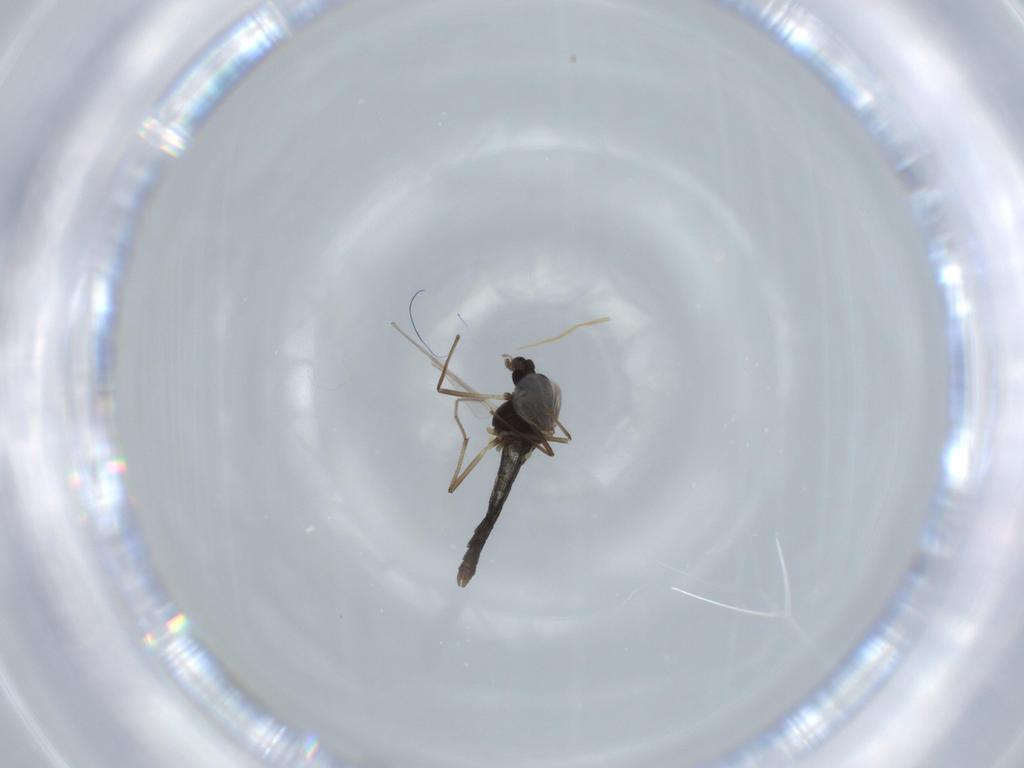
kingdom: Animalia
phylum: Arthropoda
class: Insecta
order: Diptera
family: Chironomidae
